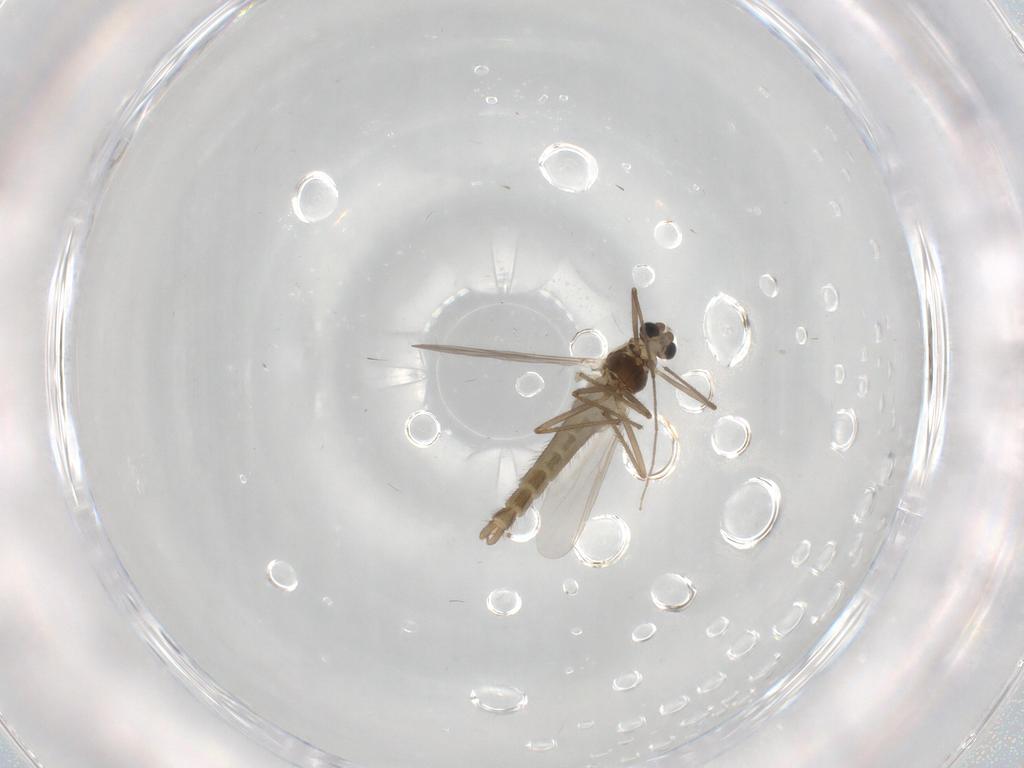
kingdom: Animalia
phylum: Arthropoda
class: Insecta
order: Diptera
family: Chironomidae
